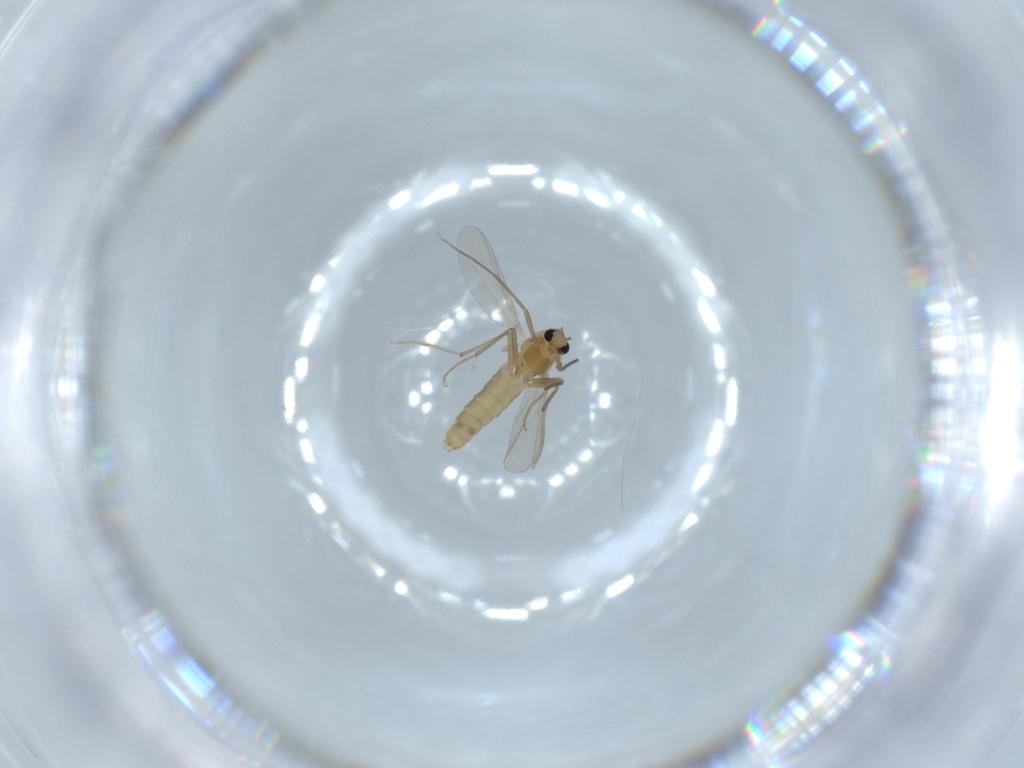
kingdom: Animalia
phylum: Arthropoda
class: Insecta
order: Diptera
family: Chironomidae
